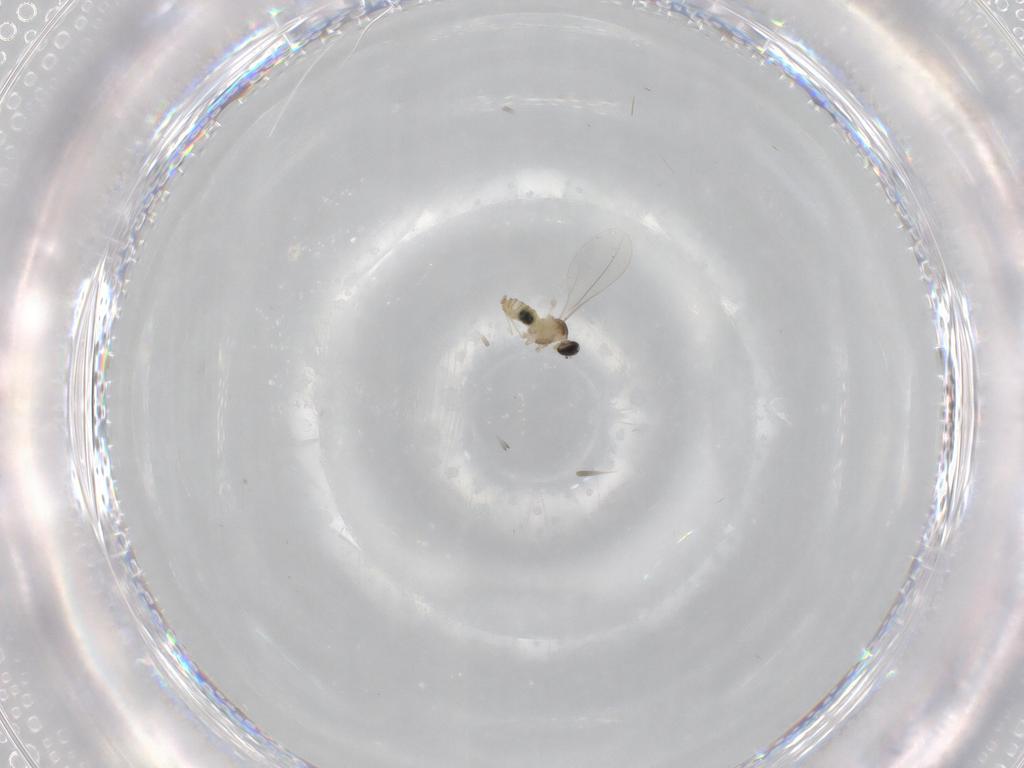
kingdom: Animalia
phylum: Arthropoda
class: Insecta
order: Diptera
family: Cecidomyiidae
